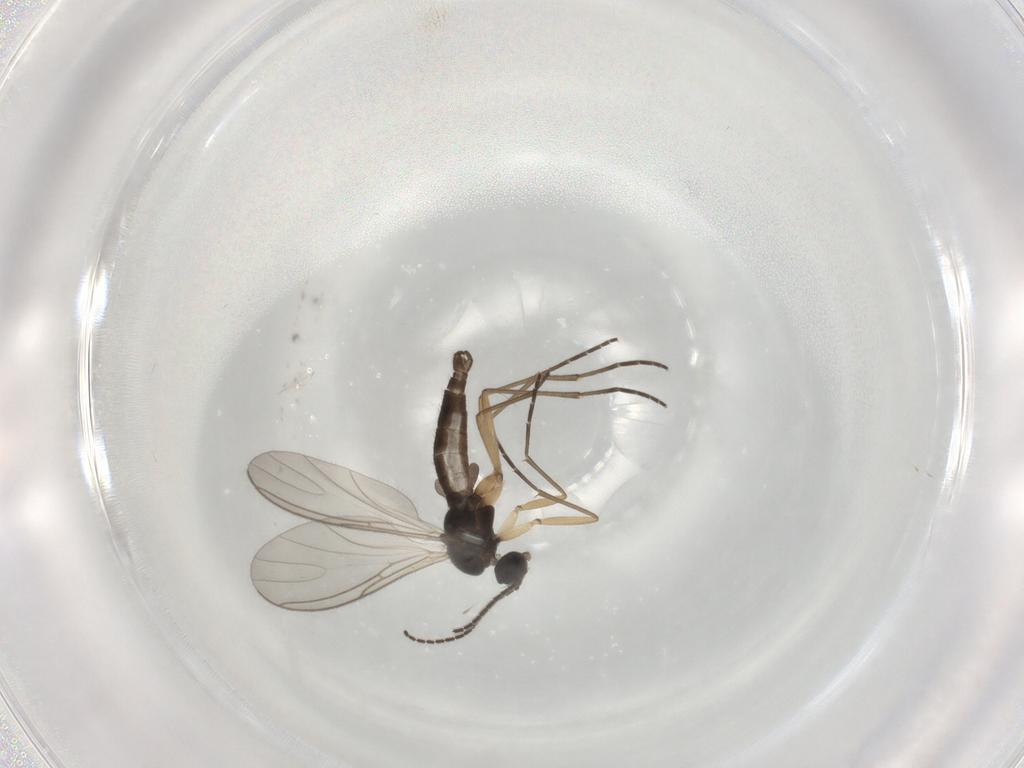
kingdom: Animalia
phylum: Arthropoda
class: Insecta
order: Diptera
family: Sciaridae
